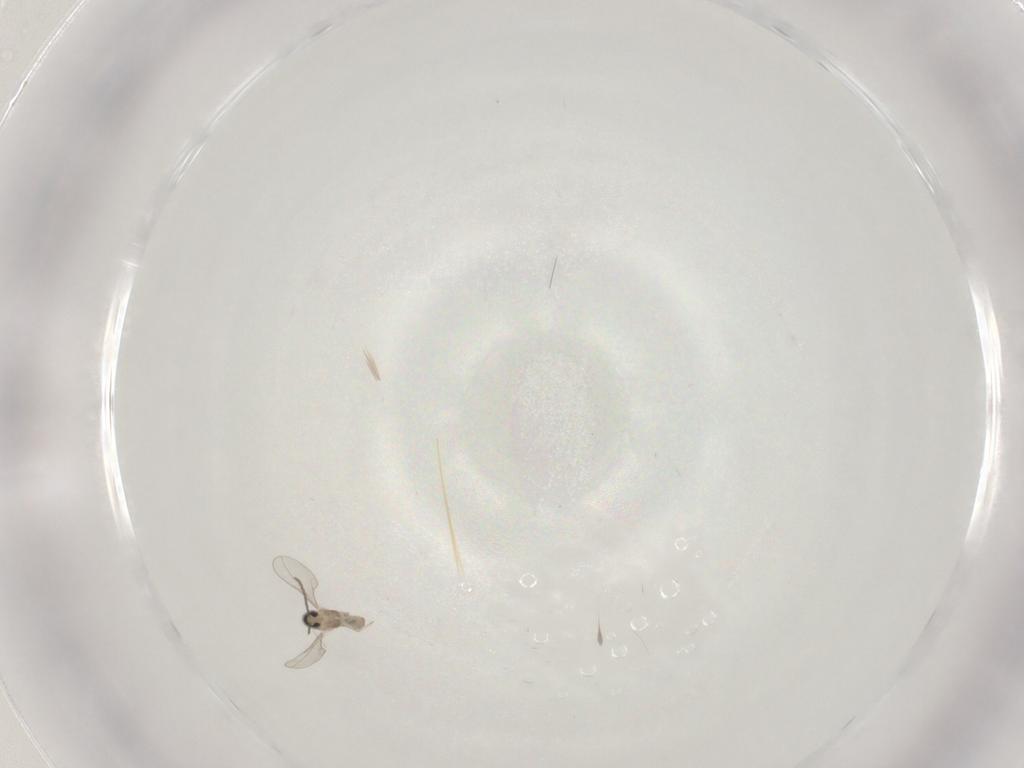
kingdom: Animalia
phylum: Arthropoda
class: Insecta
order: Diptera
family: Cecidomyiidae
